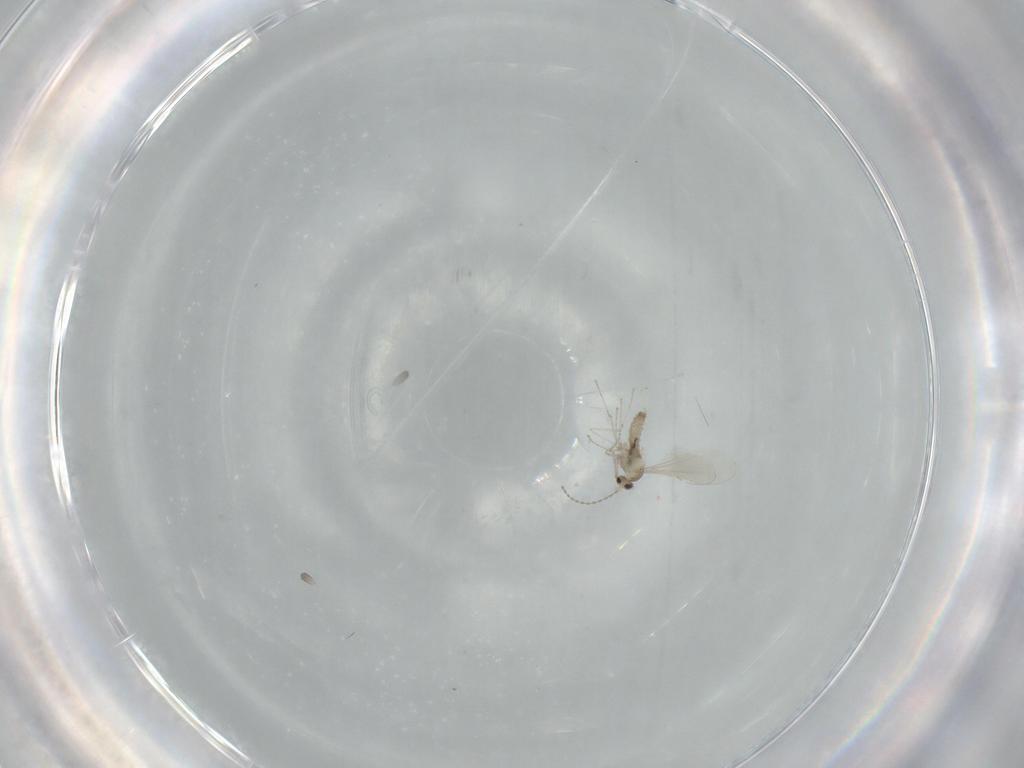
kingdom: Animalia
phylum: Arthropoda
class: Insecta
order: Diptera
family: Cecidomyiidae
